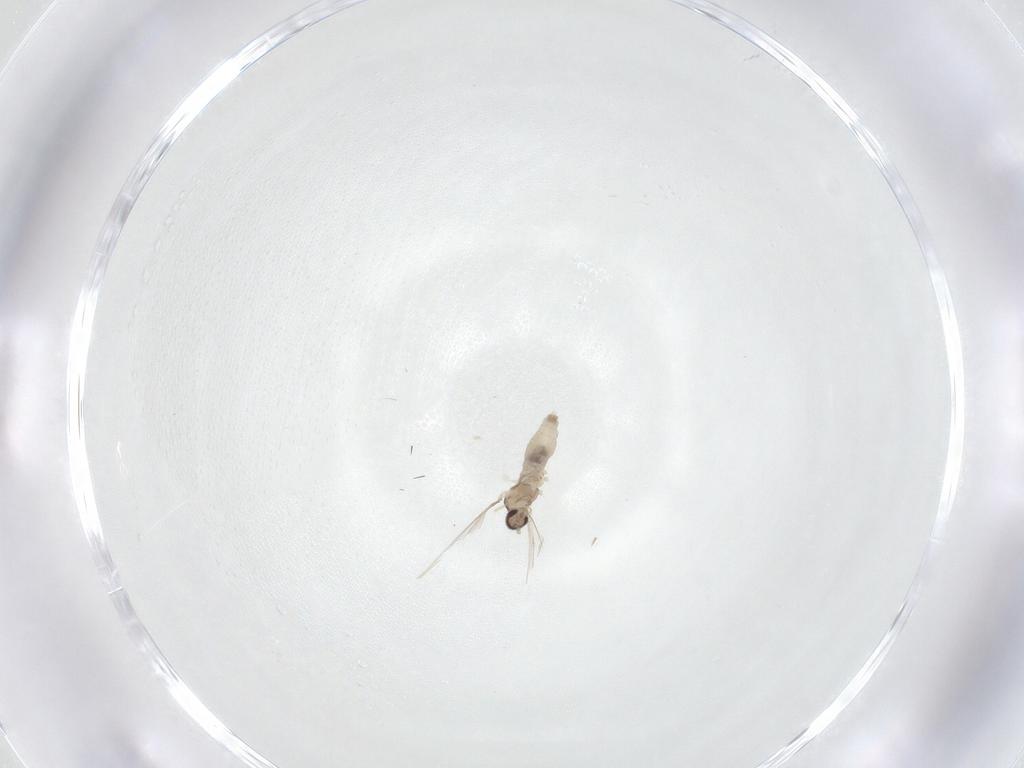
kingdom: Animalia
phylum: Arthropoda
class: Insecta
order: Diptera
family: Cecidomyiidae
